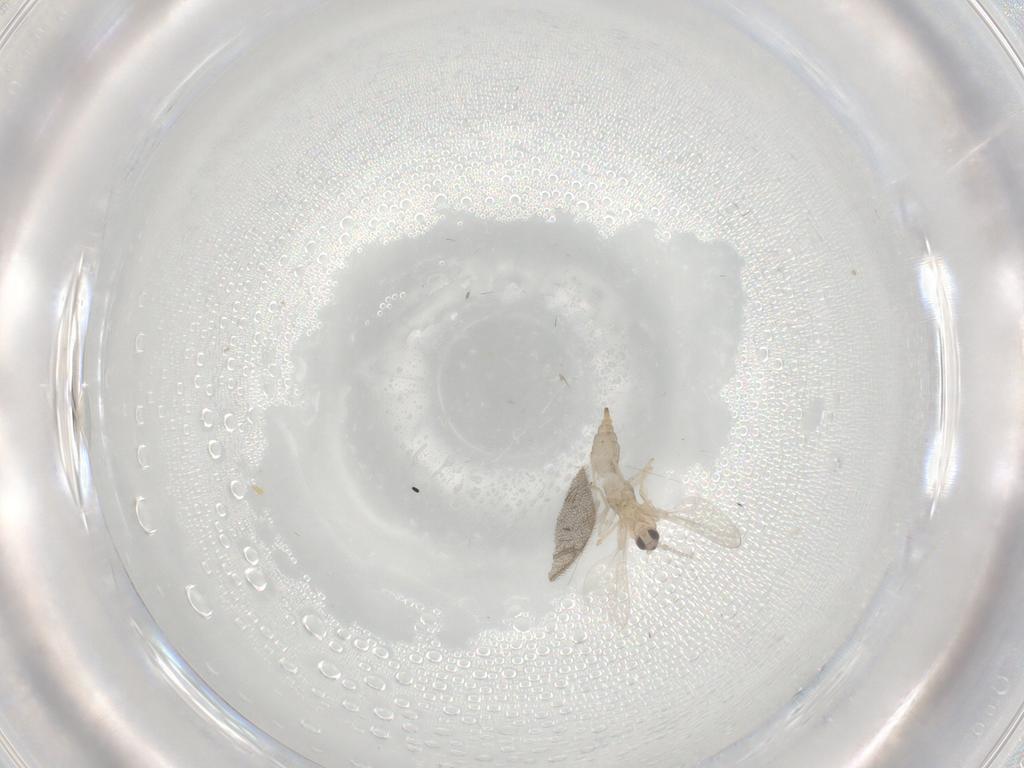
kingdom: Animalia
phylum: Arthropoda
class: Insecta
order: Diptera
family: Cecidomyiidae
